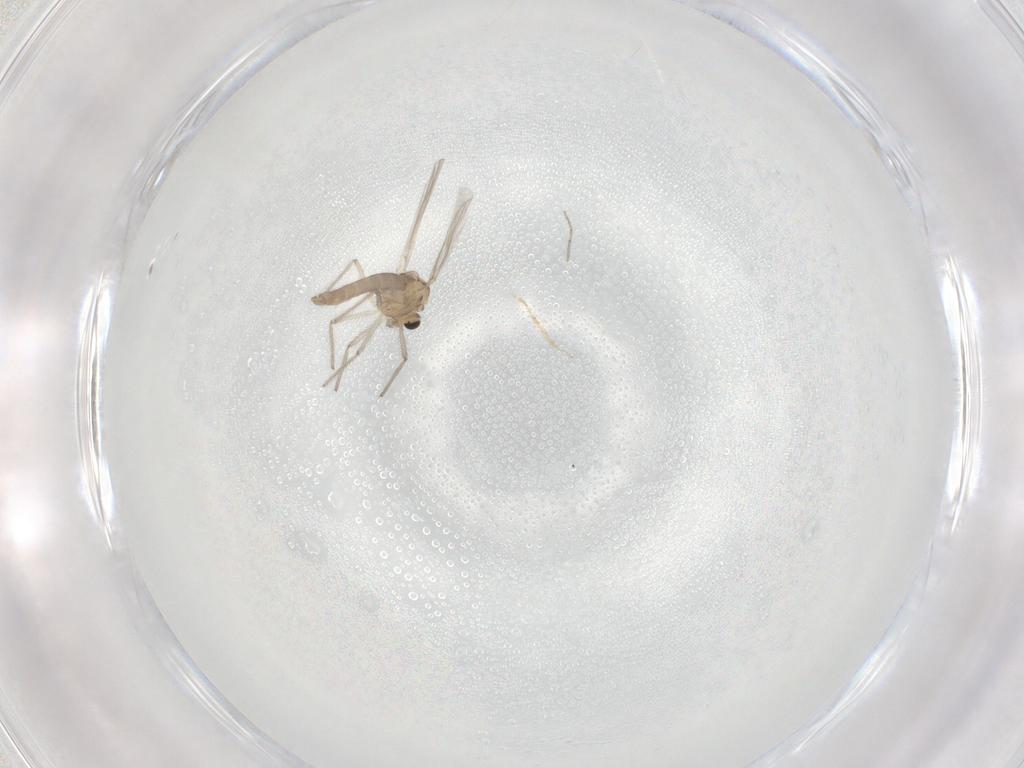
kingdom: Animalia
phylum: Arthropoda
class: Insecta
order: Diptera
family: Chironomidae
